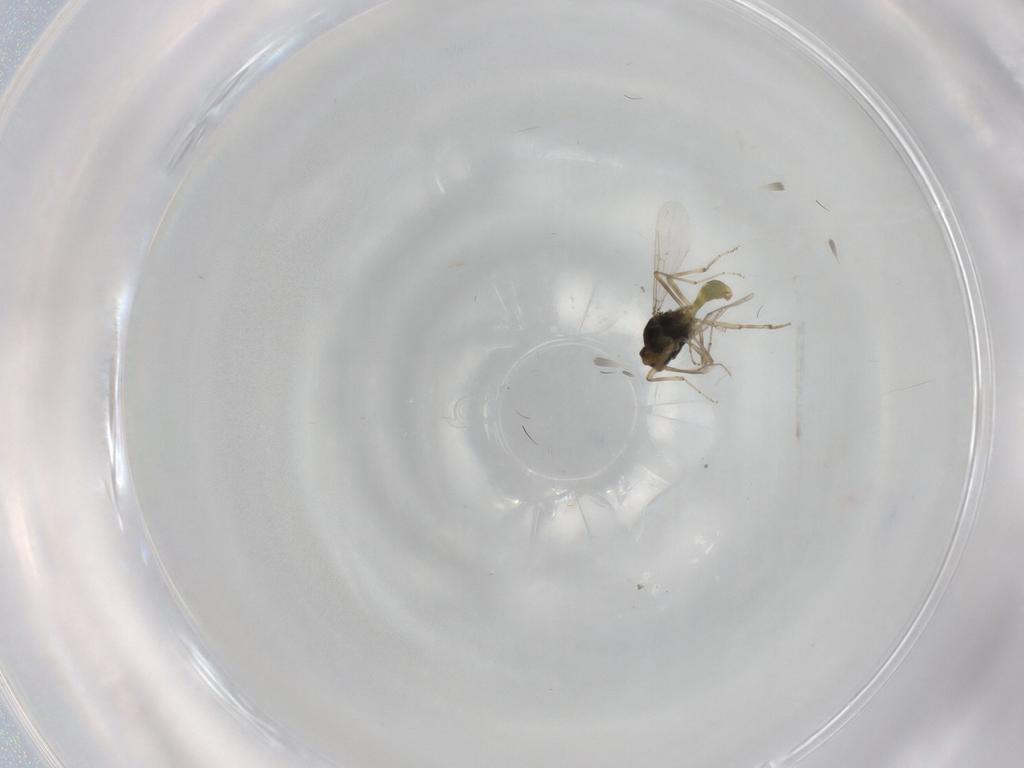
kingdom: Animalia
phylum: Arthropoda
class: Insecta
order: Diptera
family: Ceratopogonidae
